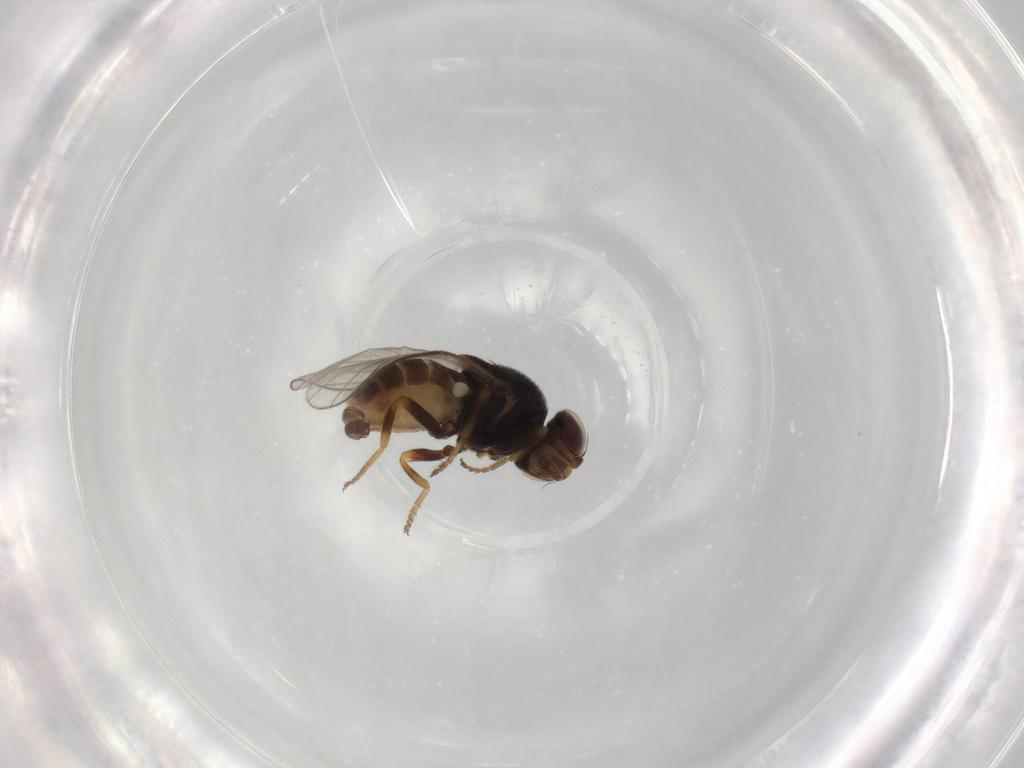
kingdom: Animalia
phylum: Arthropoda
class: Insecta
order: Diptera
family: Chloropidae
